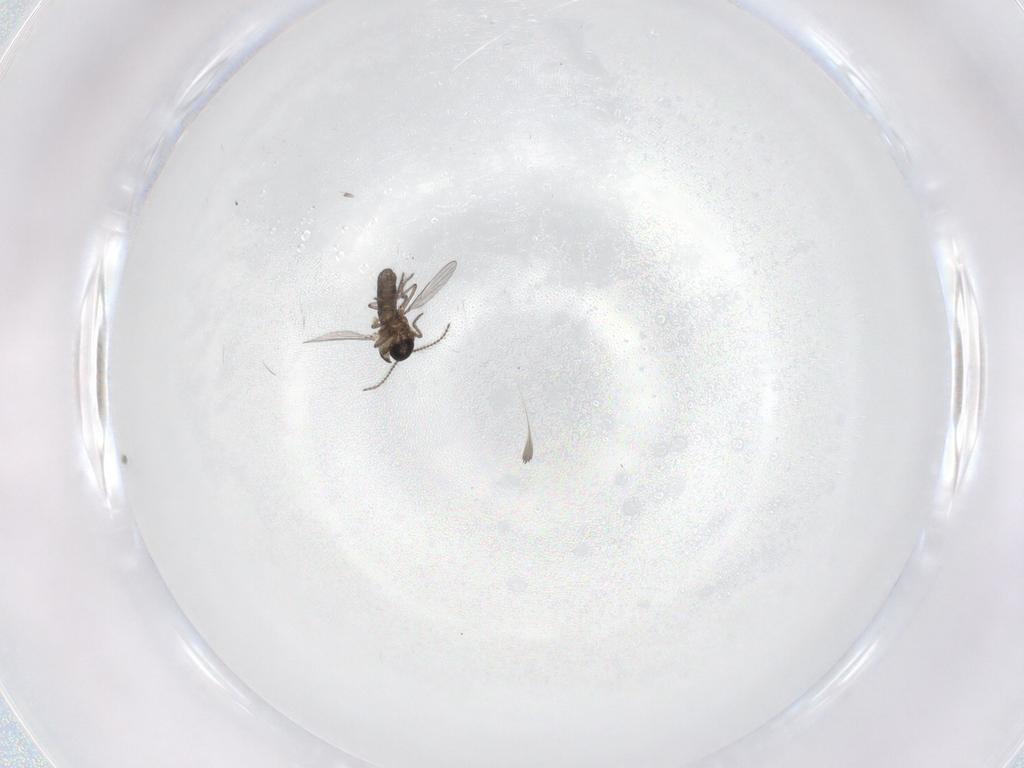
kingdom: Animalia
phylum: Arthropoda
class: Insecta
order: Diptera
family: Cecidomyiidae
